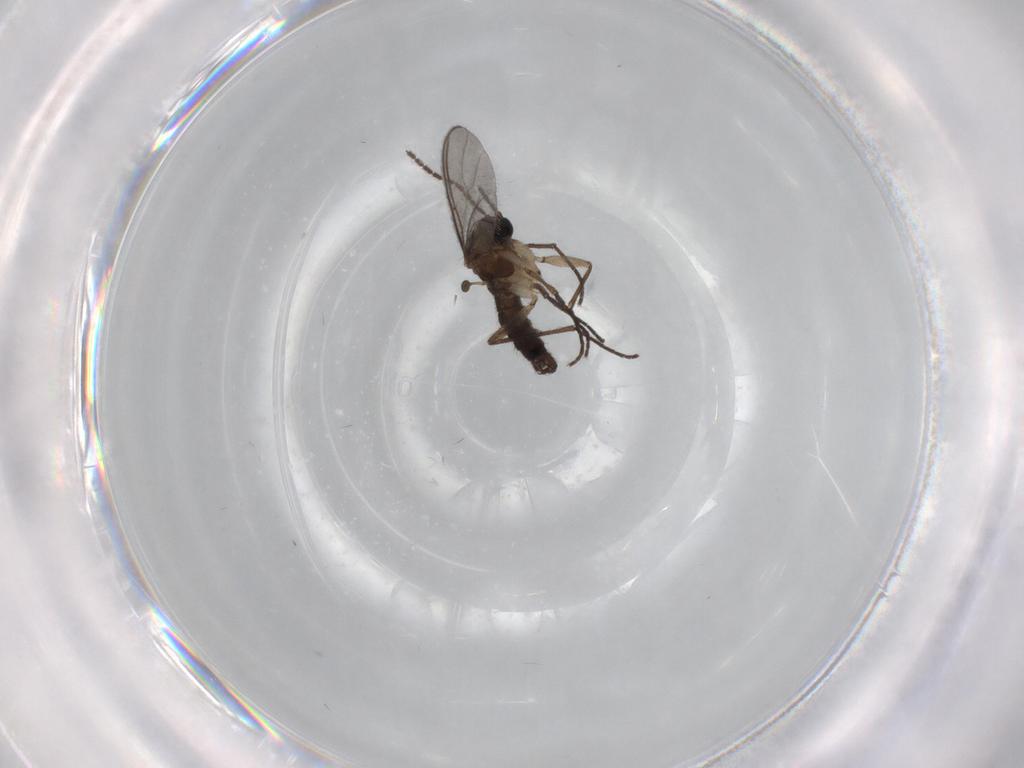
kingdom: Animalia
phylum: Arthropoda
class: Insecta
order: Diptera
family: Sciaridae
